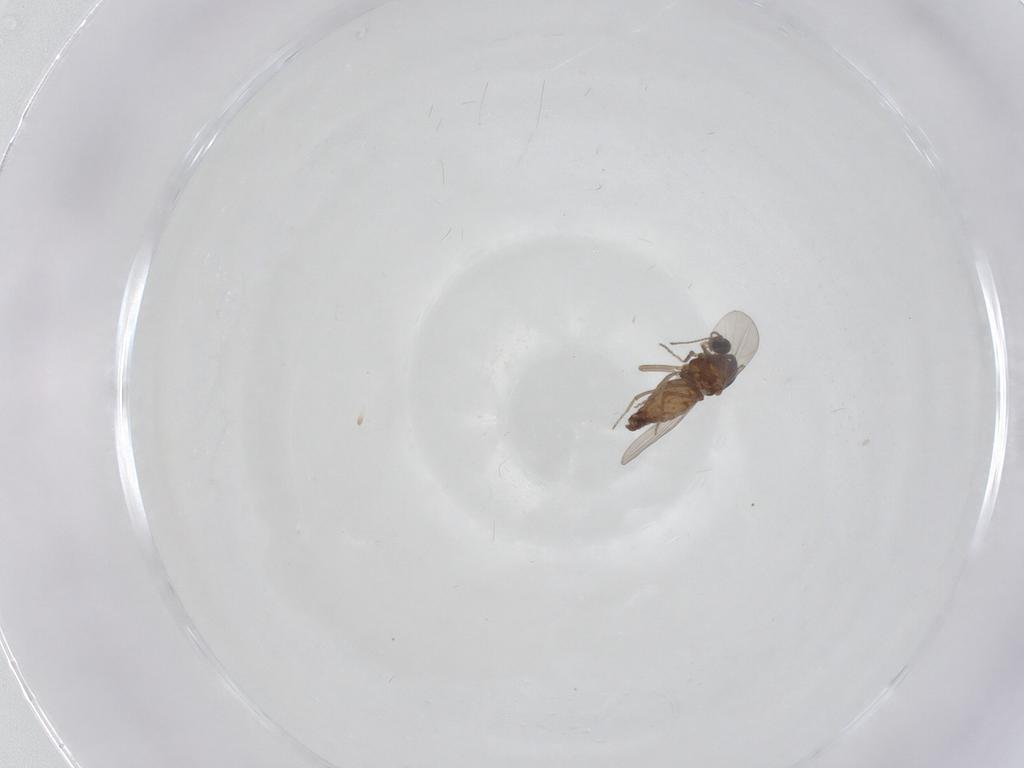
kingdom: Animalia
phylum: Arthropoda
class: Insecta
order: Diptera
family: Ceratopogonidae
